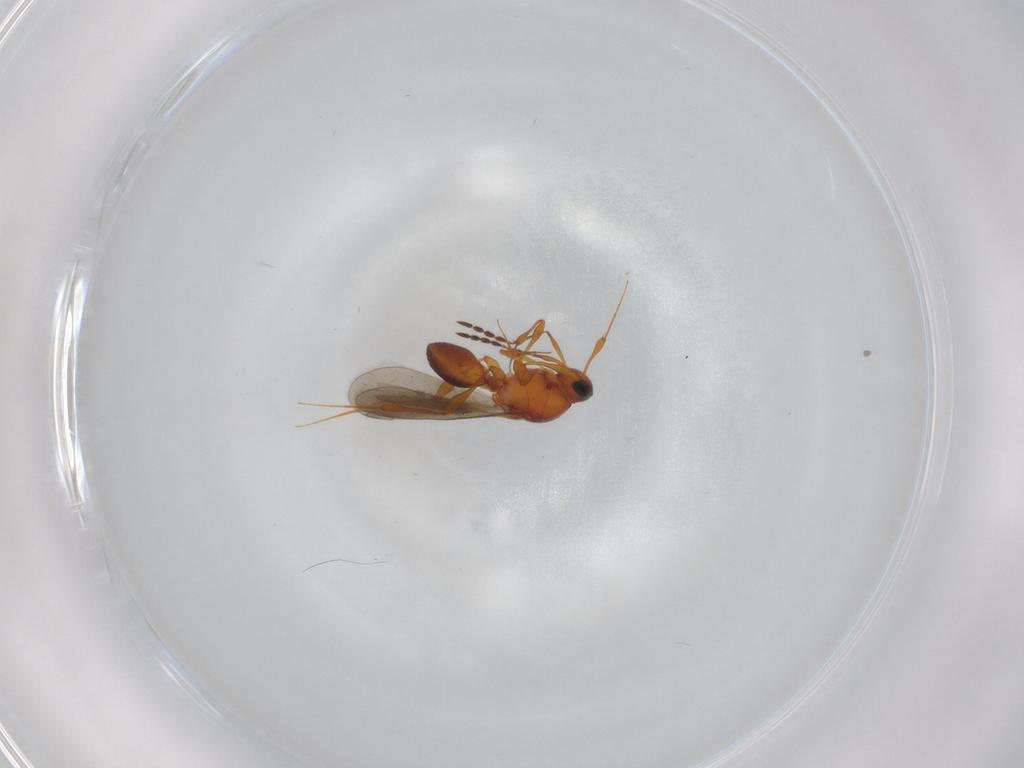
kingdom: Animalia
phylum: Arthropoda
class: Insecta
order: Hymenoptera
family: Platygastridae
